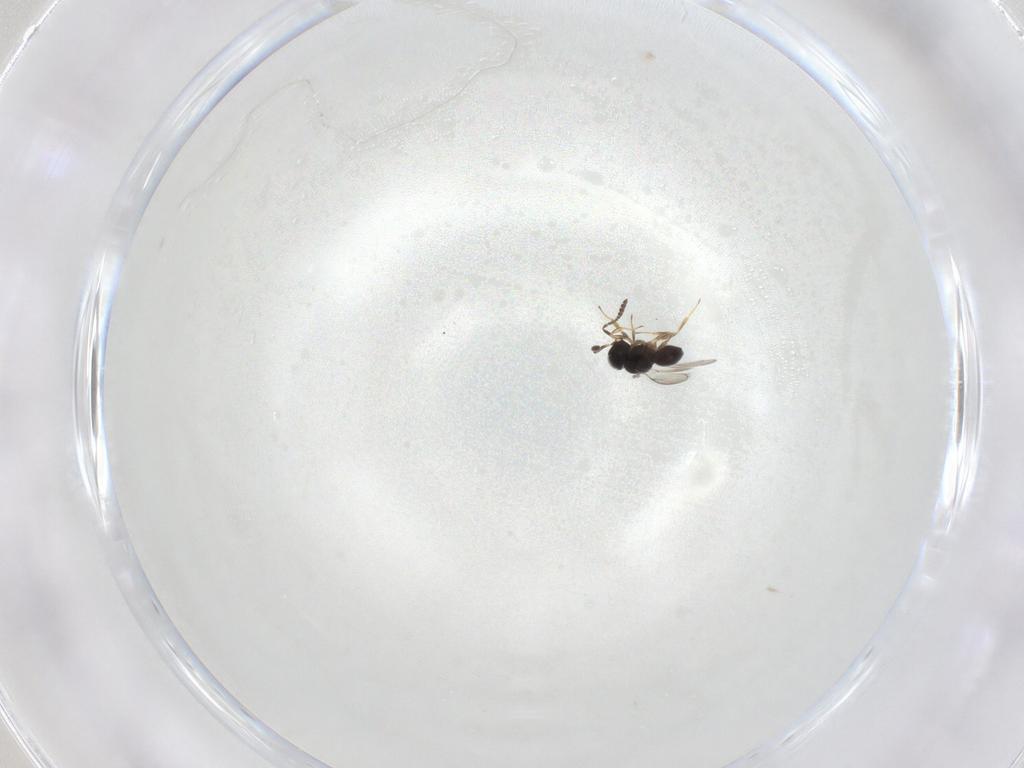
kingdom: Animalia
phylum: Arthropoda
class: Insecta
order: Hymenoptera
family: Scelionidae
